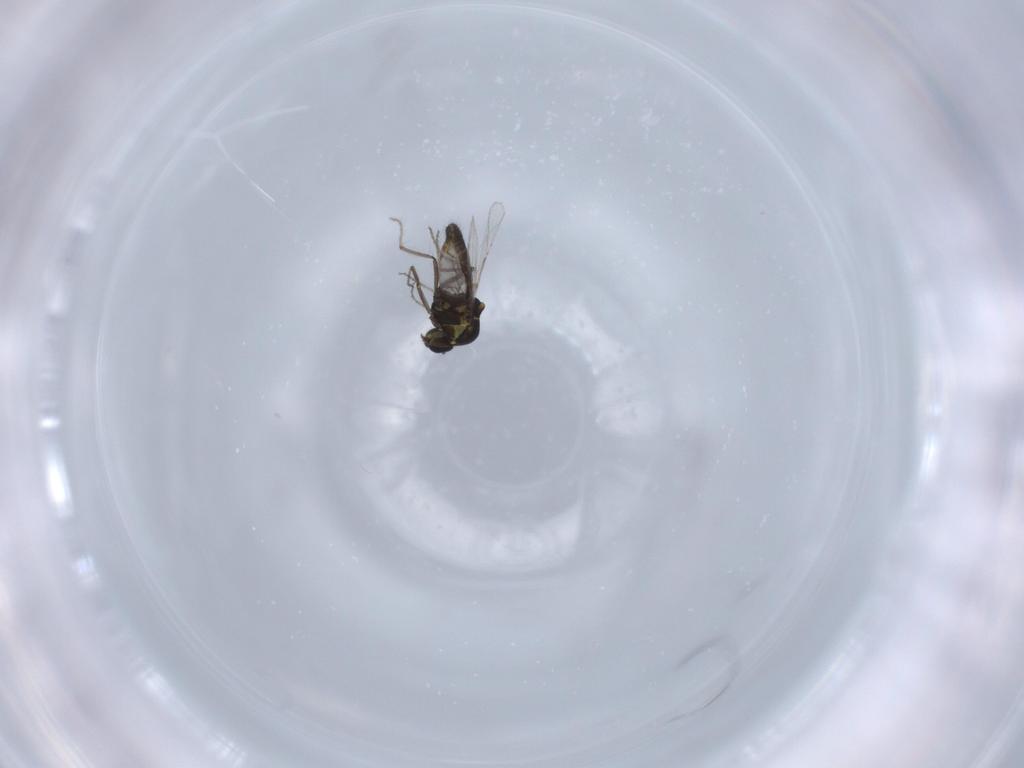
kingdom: Animalia
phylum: Arthropoda
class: Insecta
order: Diptera
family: Ceratopogonidae
